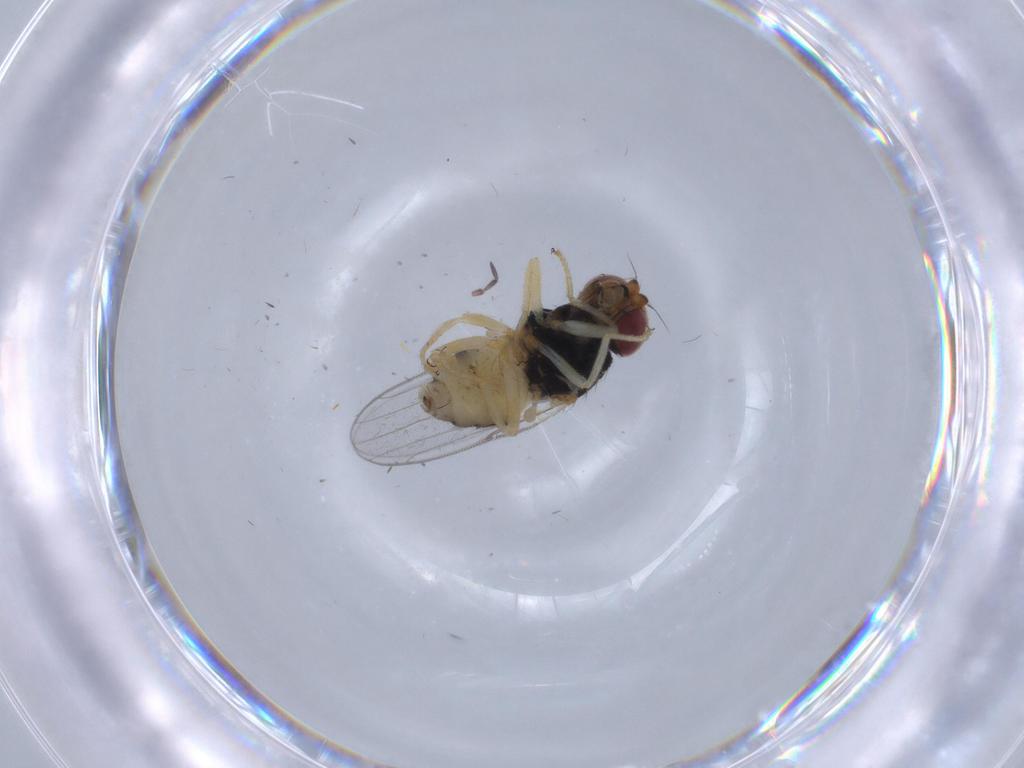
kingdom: Animalia
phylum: Arthropoda
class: Insecta
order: Diptera
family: Chloropidae
